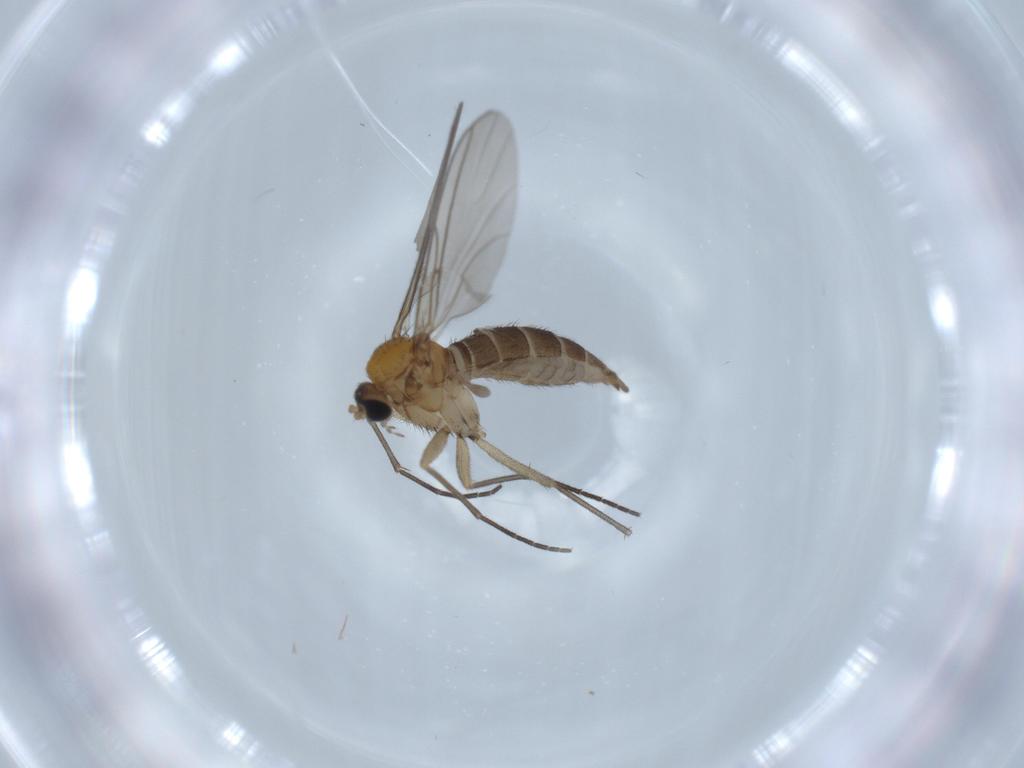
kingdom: Animalia
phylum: Arthropoda
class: Insecta
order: Diptera
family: Sciaridae
